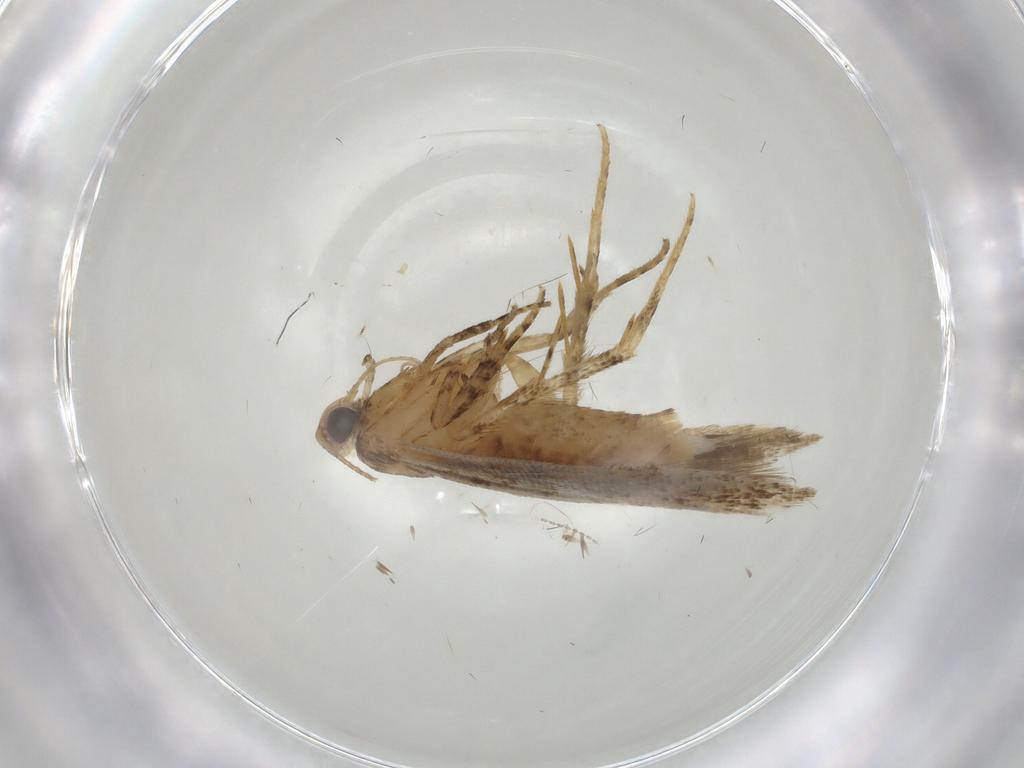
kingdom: Animalia
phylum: Arthropoda
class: Insecta
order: Lepidoptera
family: Gelechiidae
